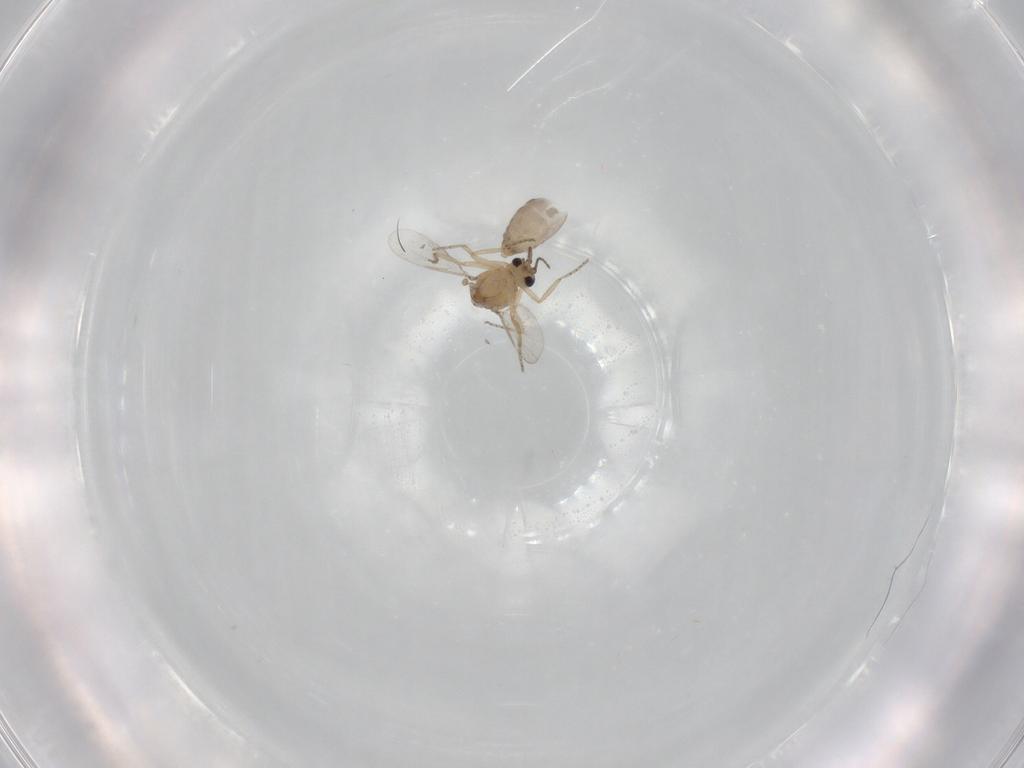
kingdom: Animalia
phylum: Arthropoda
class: Insecta
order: Diptera
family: Ceratopogonidae
